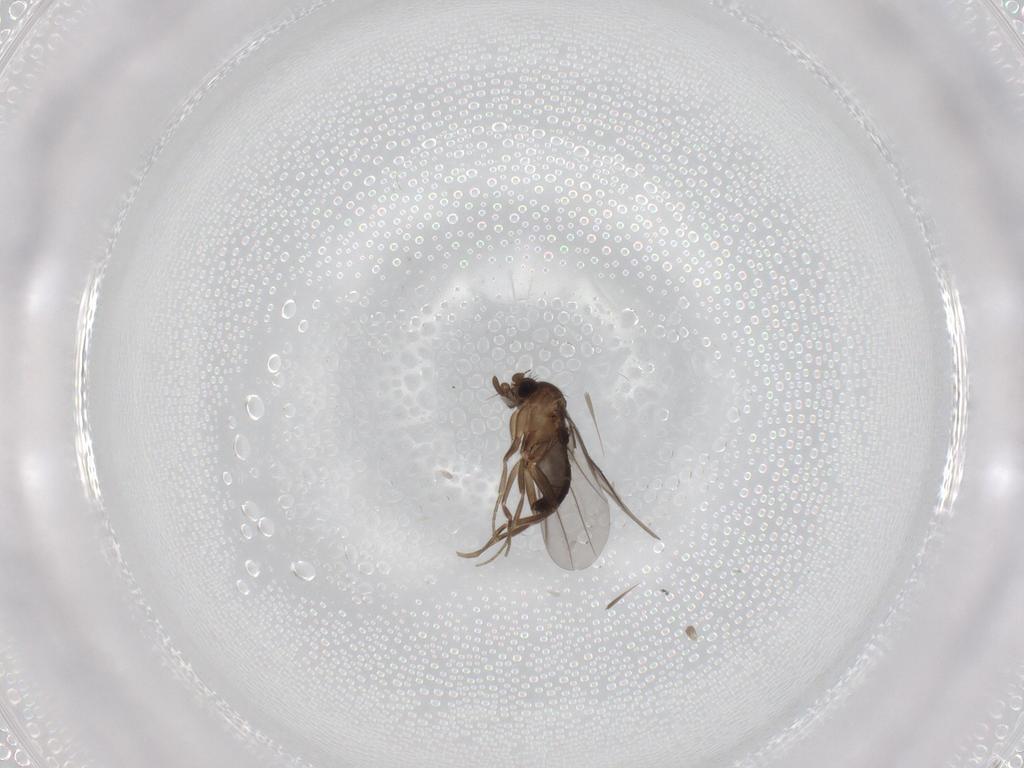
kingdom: Animalia
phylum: Arthropoda
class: Insecta
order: Diptera
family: Phoridae
